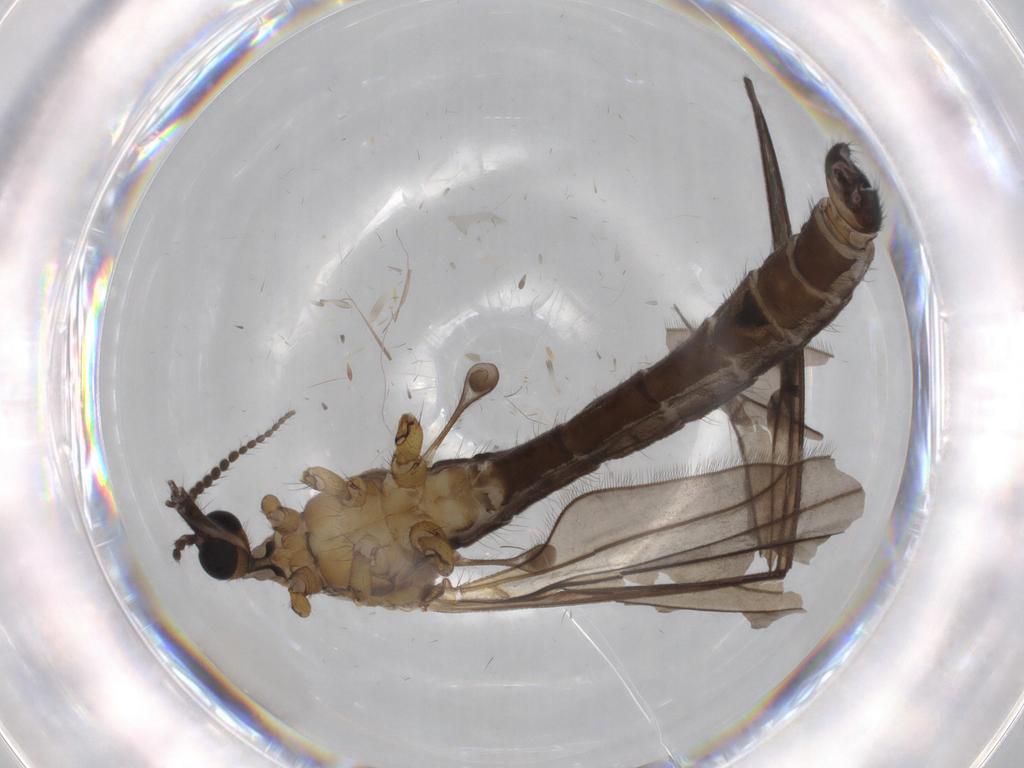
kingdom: Animalia
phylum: Arthropoda
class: Insecta
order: Diptera
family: Limoniidae
